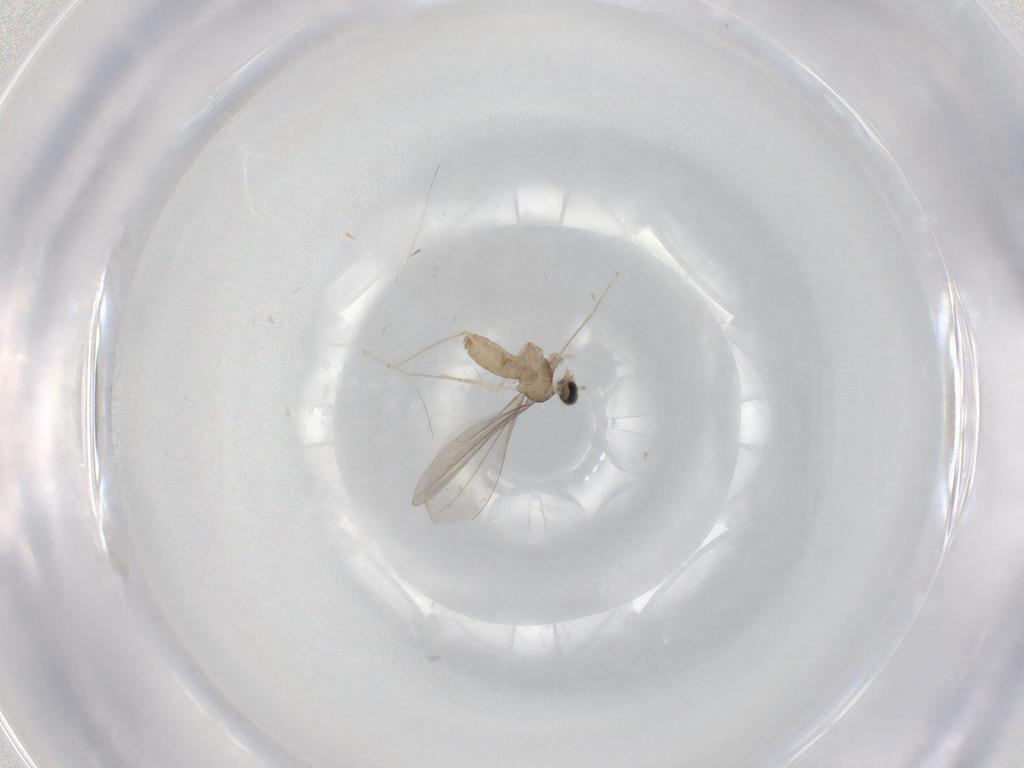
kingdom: Animalia
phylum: Arthropoda
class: Insecta
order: Diptera
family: Cecidomyiidae
